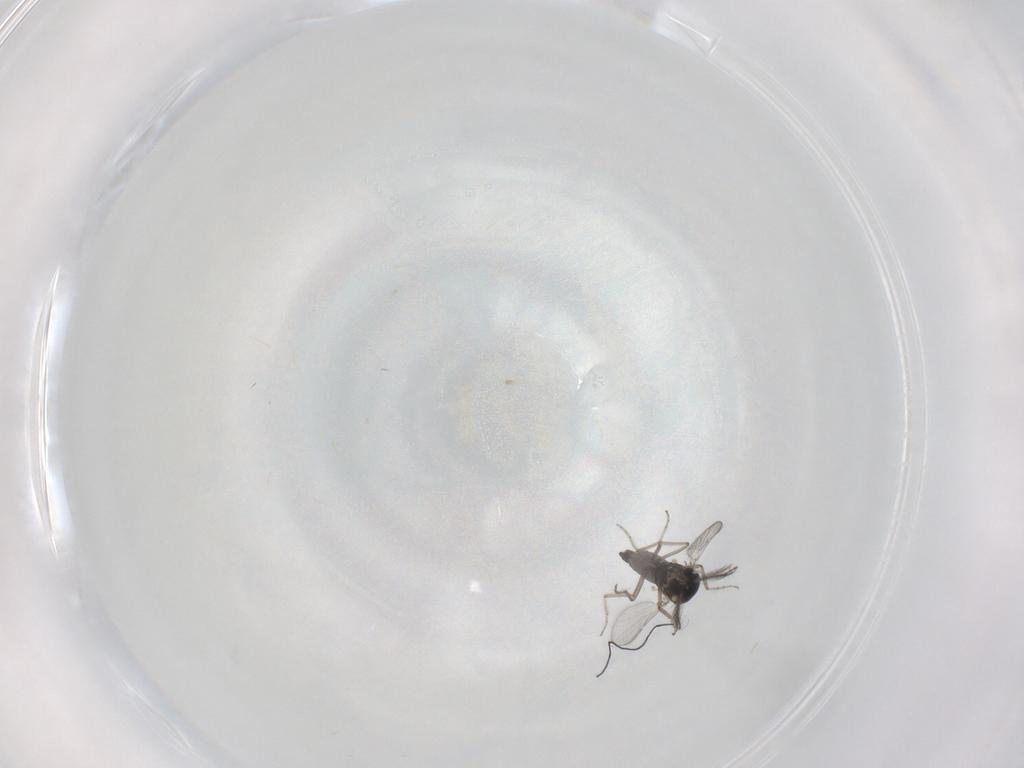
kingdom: Animalia
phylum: Arthropoda
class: Insecta
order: Diptera
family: Ceratopogonidae
